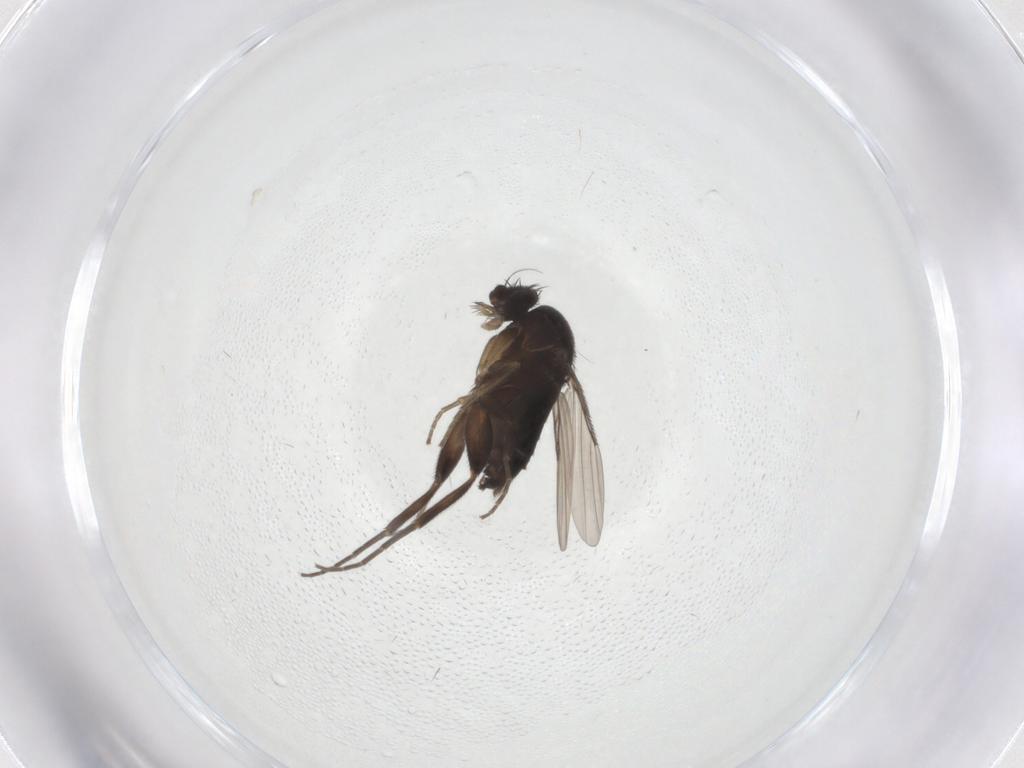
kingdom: Animalia
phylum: Arthropoda
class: Insecta
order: Diptera
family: Phoridae
